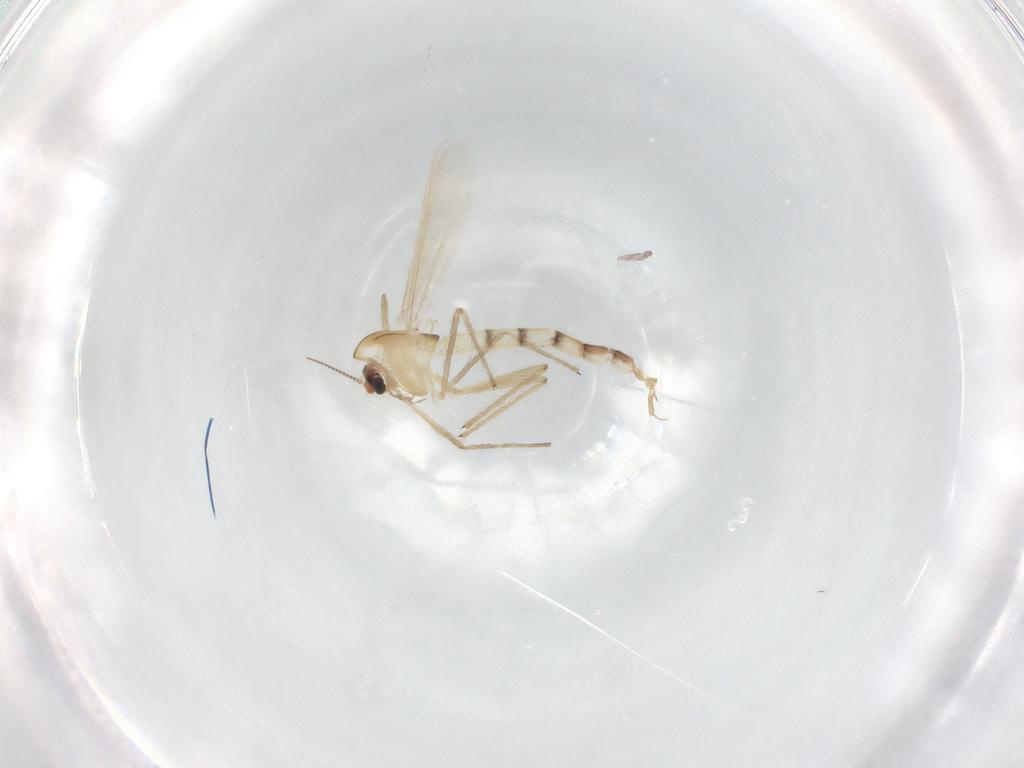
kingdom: Animalia
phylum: Arthropoda
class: Insecta
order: Diptera
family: Chironomidae
